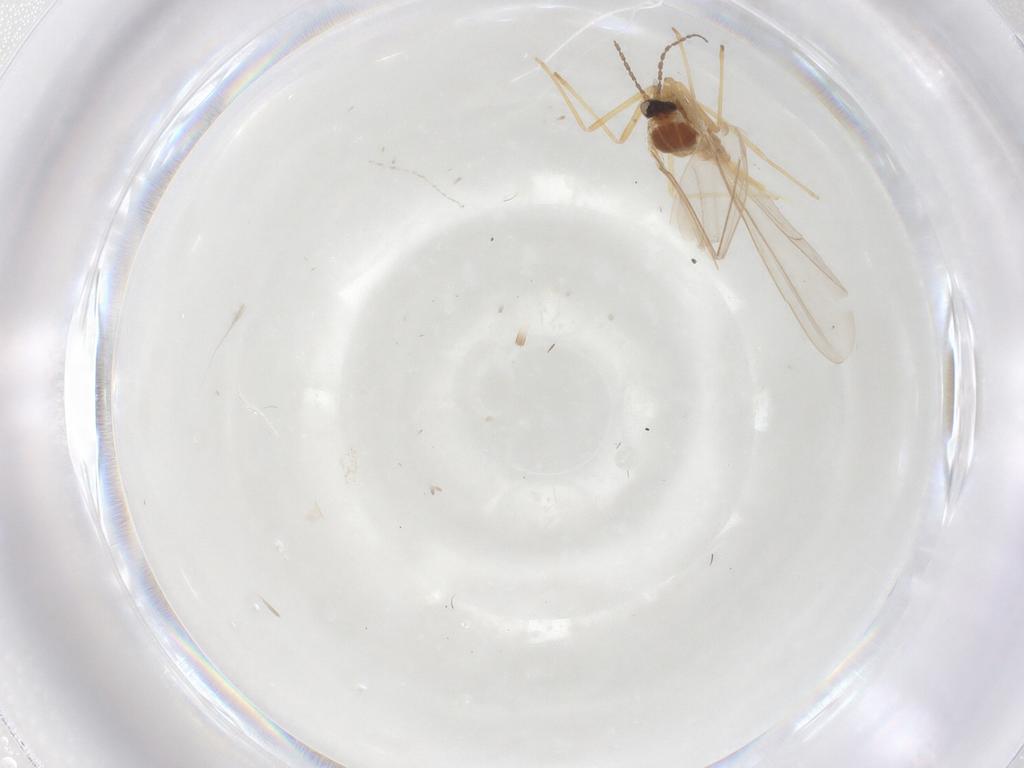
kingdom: Animalia
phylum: Arthropoda
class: Insecta
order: Diptera
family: Cecidomyiidae
